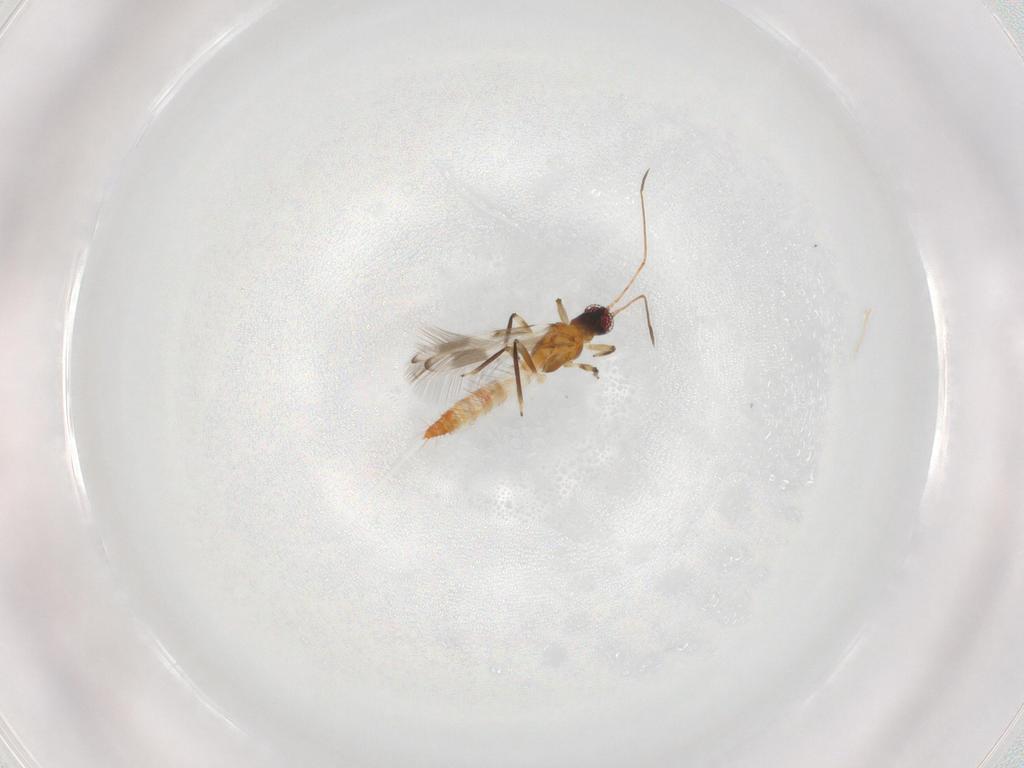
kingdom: Animalia
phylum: Arthropoda
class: Insecta
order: Thysanoptera
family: Aeolothripidae
